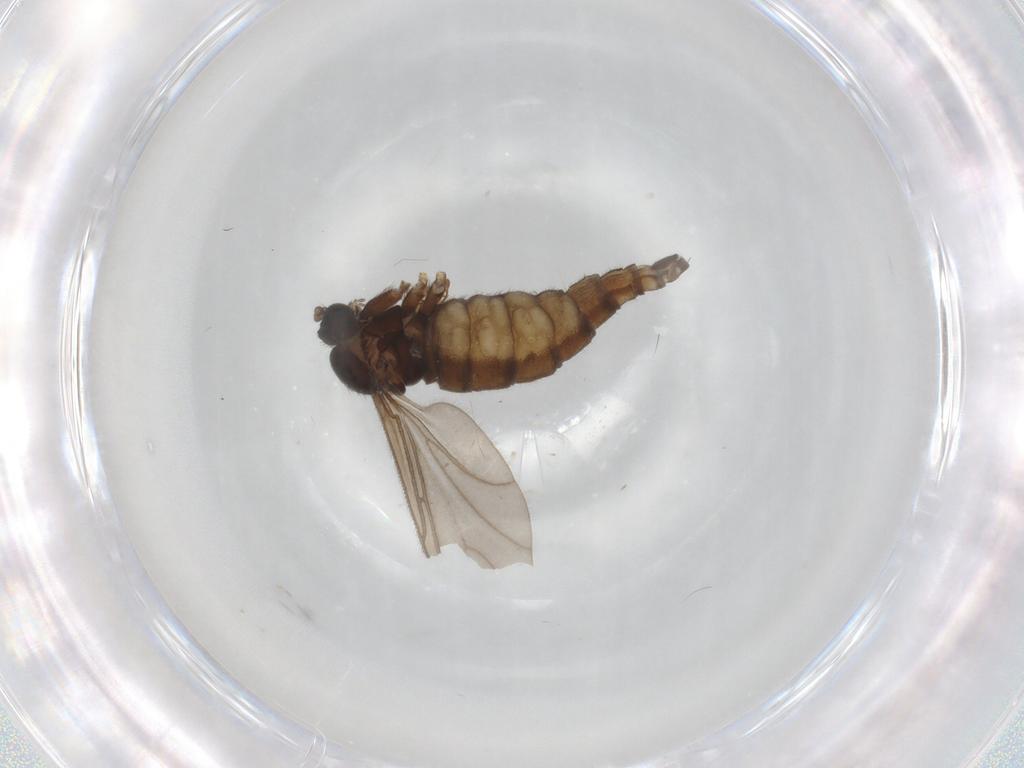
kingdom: Animalia
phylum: Arthropoda
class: Insecta
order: Diptera
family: Sciaridae
